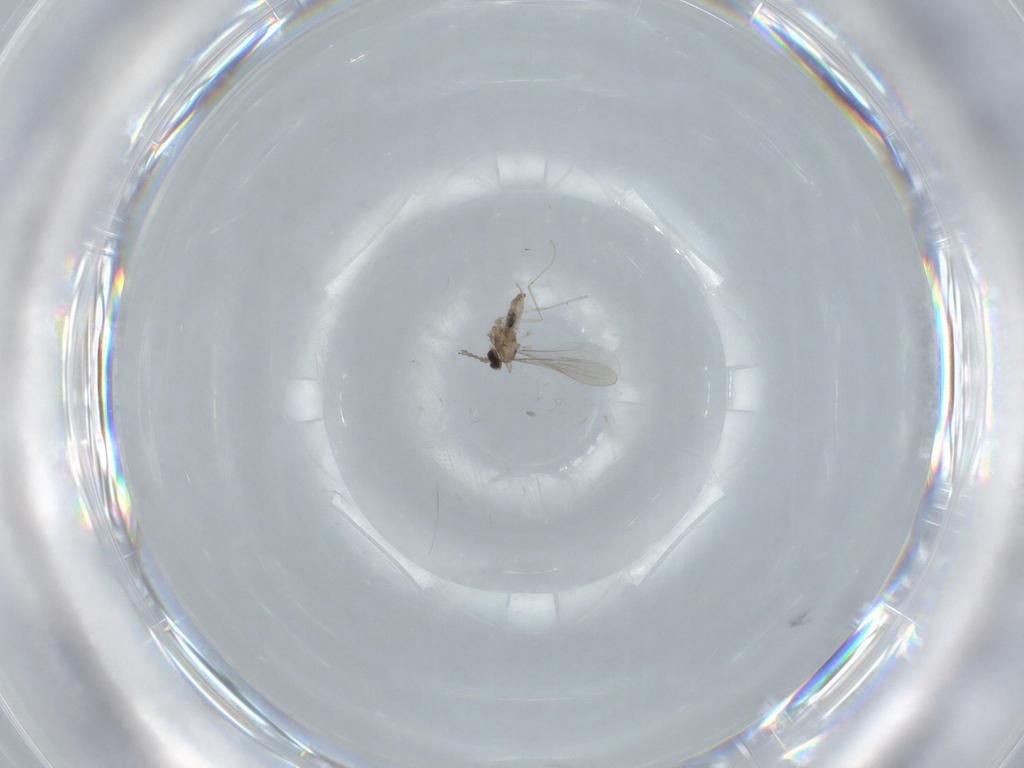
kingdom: Animalia
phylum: Arthropoda
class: Insecta
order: Diptera
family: Cecidomyiidae
